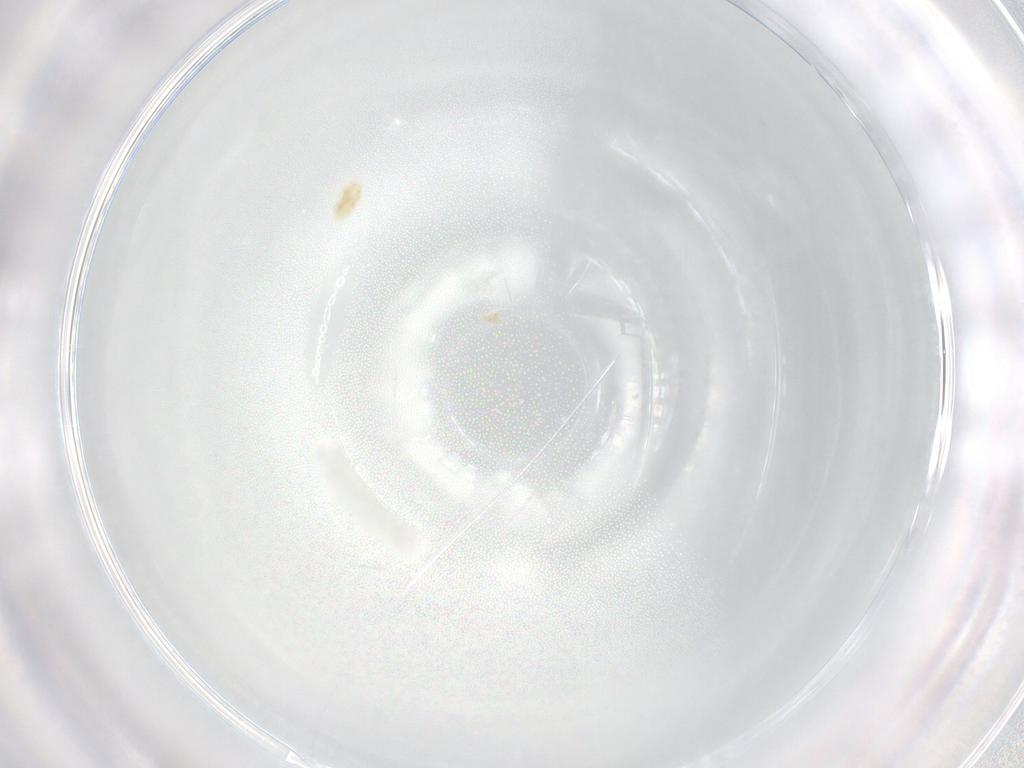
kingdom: Animalia
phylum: Arthropoda
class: Arachnida
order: Trombidiformes
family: Eupodidae
